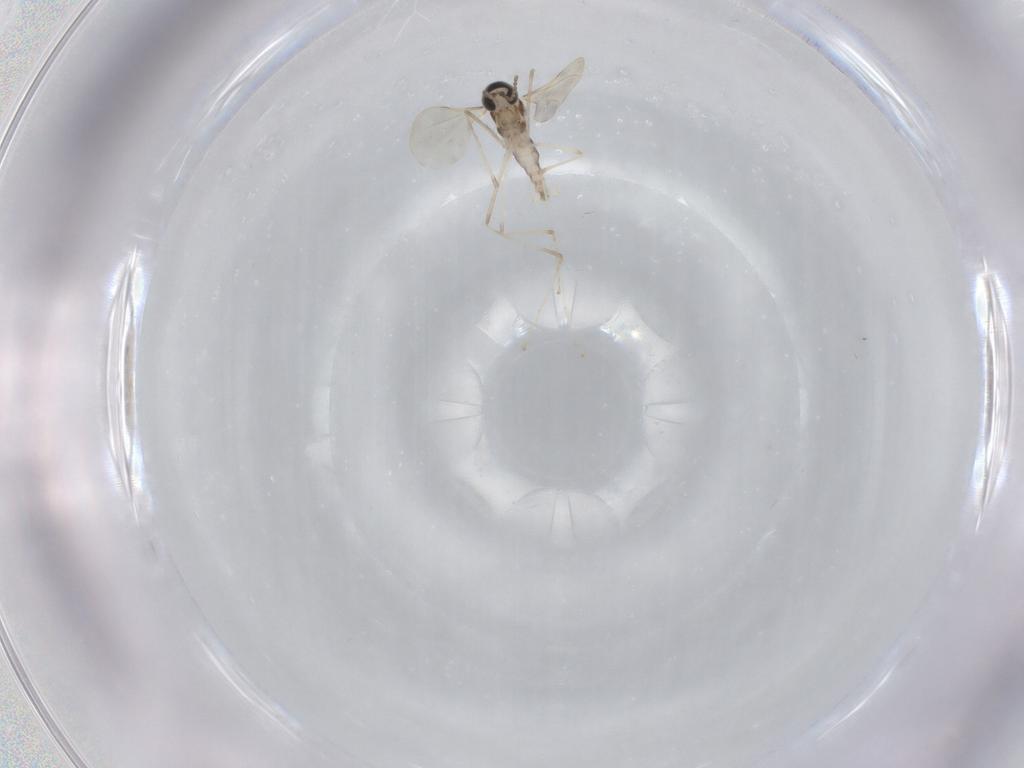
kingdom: Animalia
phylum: Arthropoda
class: Insecta
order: Diptera
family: Cecidomyiidae
